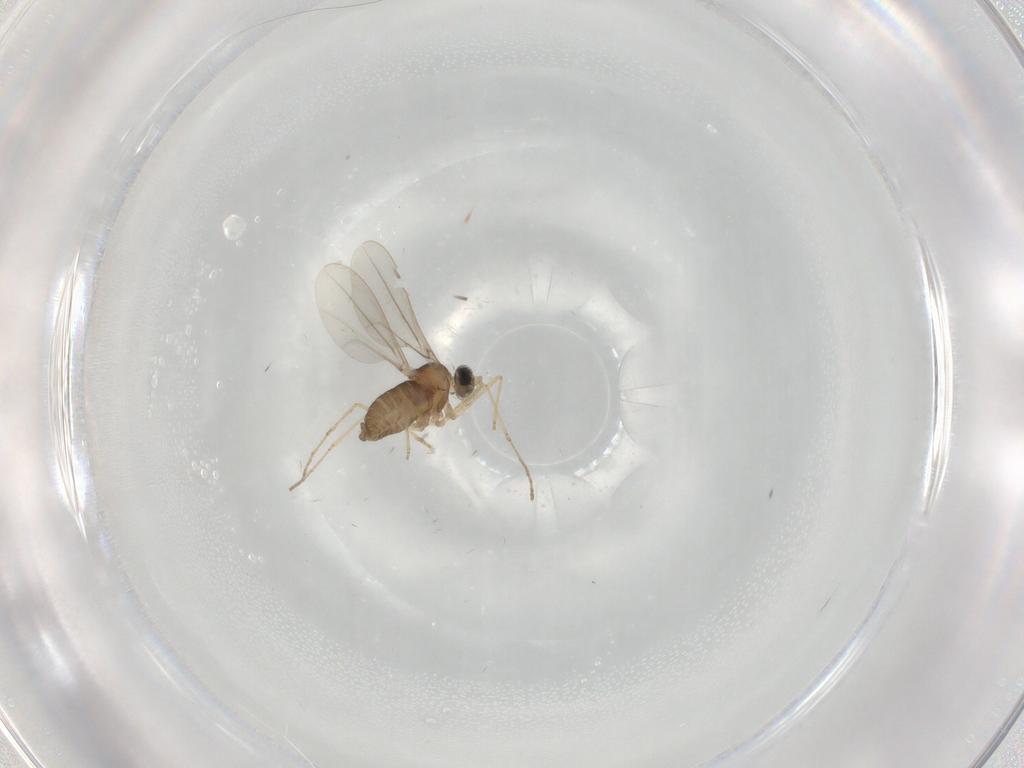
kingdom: Animalia
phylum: Arthropoda
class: Insecta
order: Diptera
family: Cecidomyiidae
